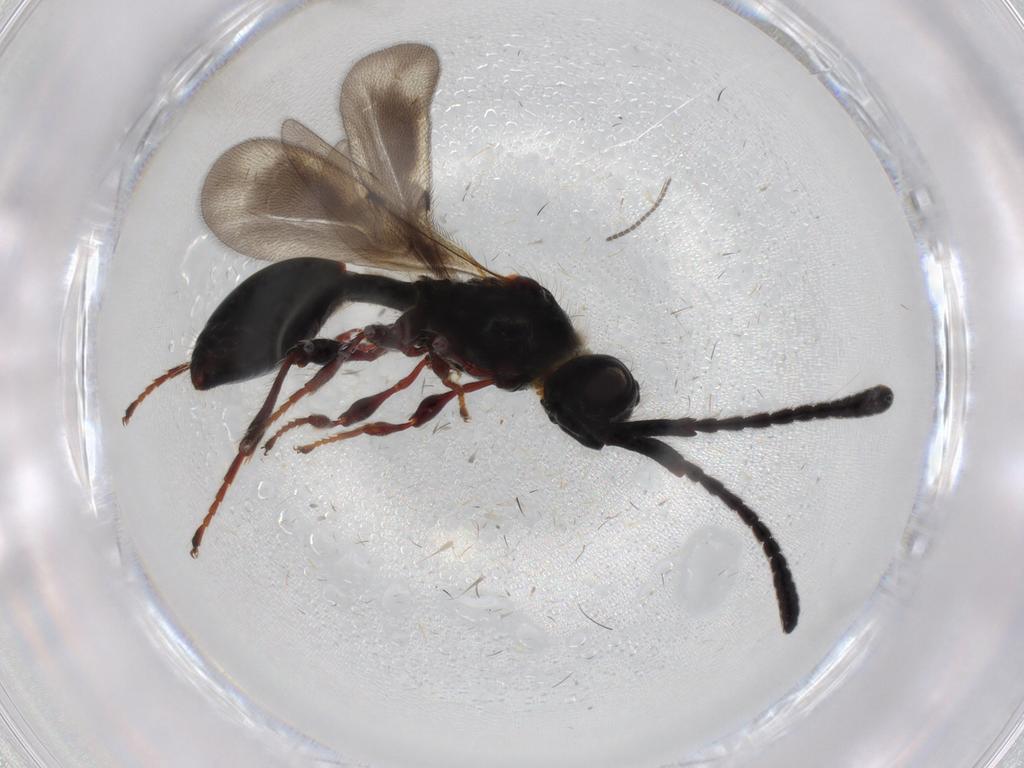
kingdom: Animalia
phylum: Arthropoda
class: Insecta
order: Hymenoptera
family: Diapriidae
